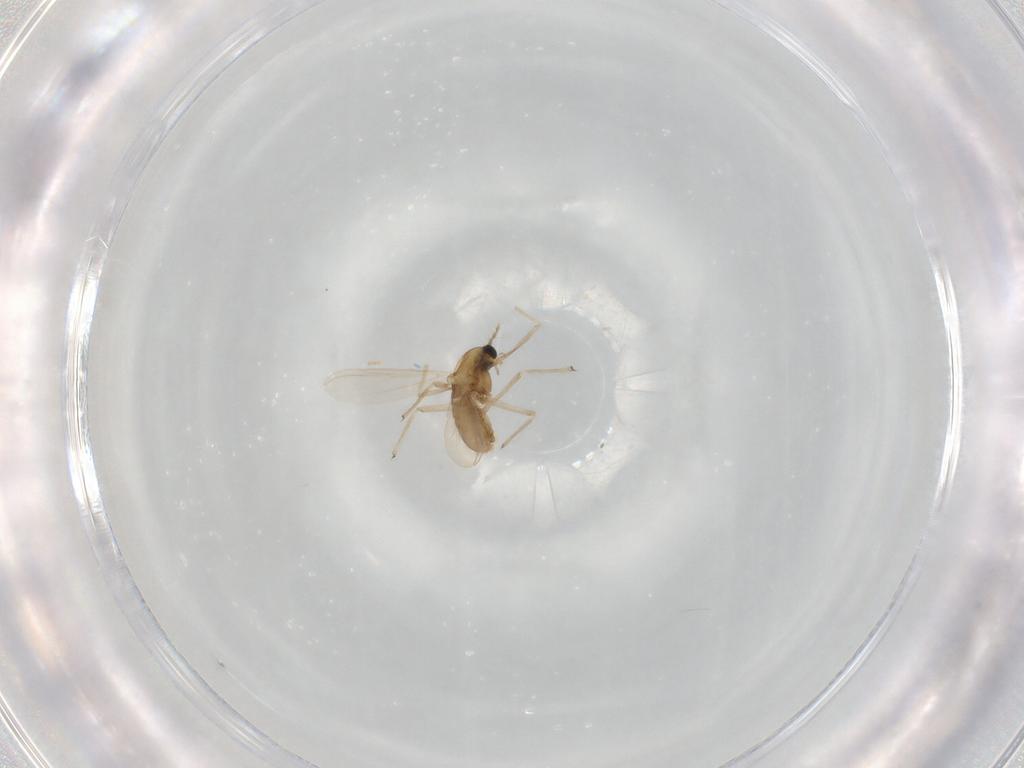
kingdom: Animalia
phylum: Arthropoda
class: Insecta
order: Diptera
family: Chironomidae
